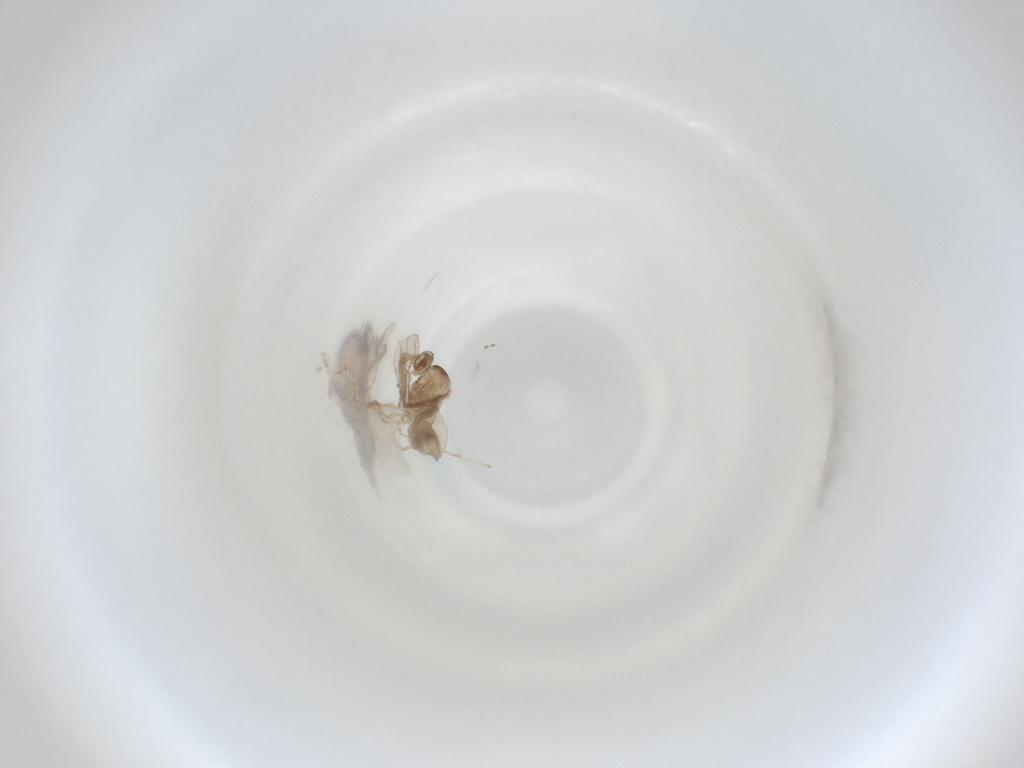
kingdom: Animalia
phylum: Arthropoda
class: Insecta
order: Diptera
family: Cecidomyiidae
